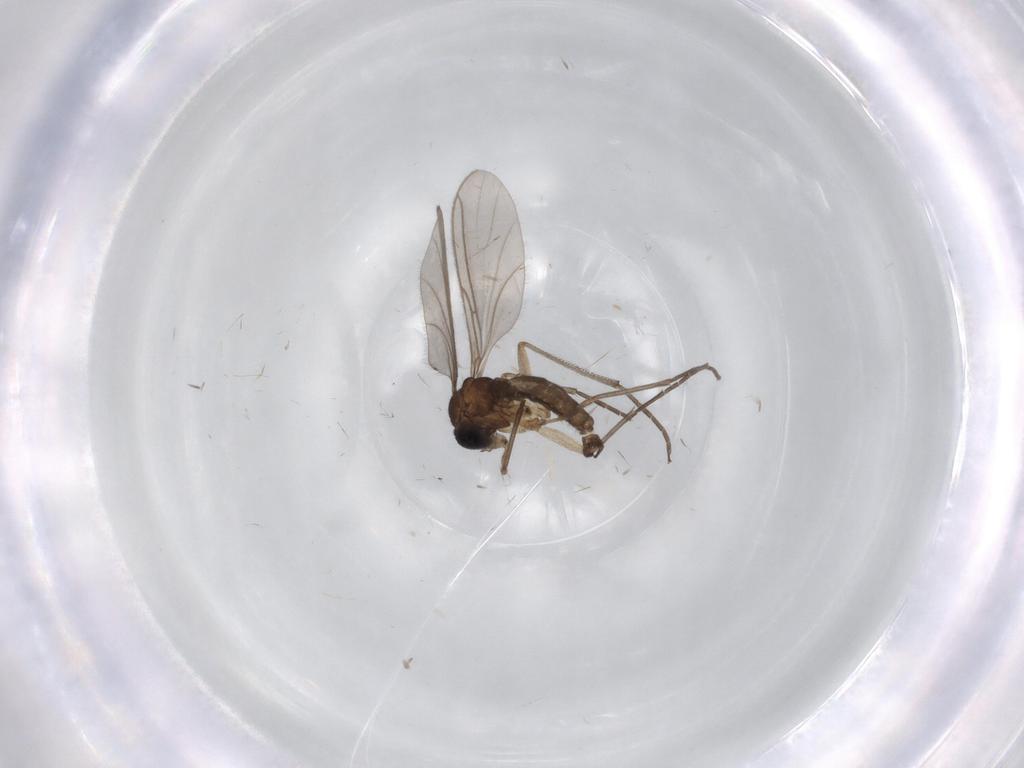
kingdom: Animalia
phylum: Arthropoda
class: Insecta
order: Diptera
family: Sciaridae
